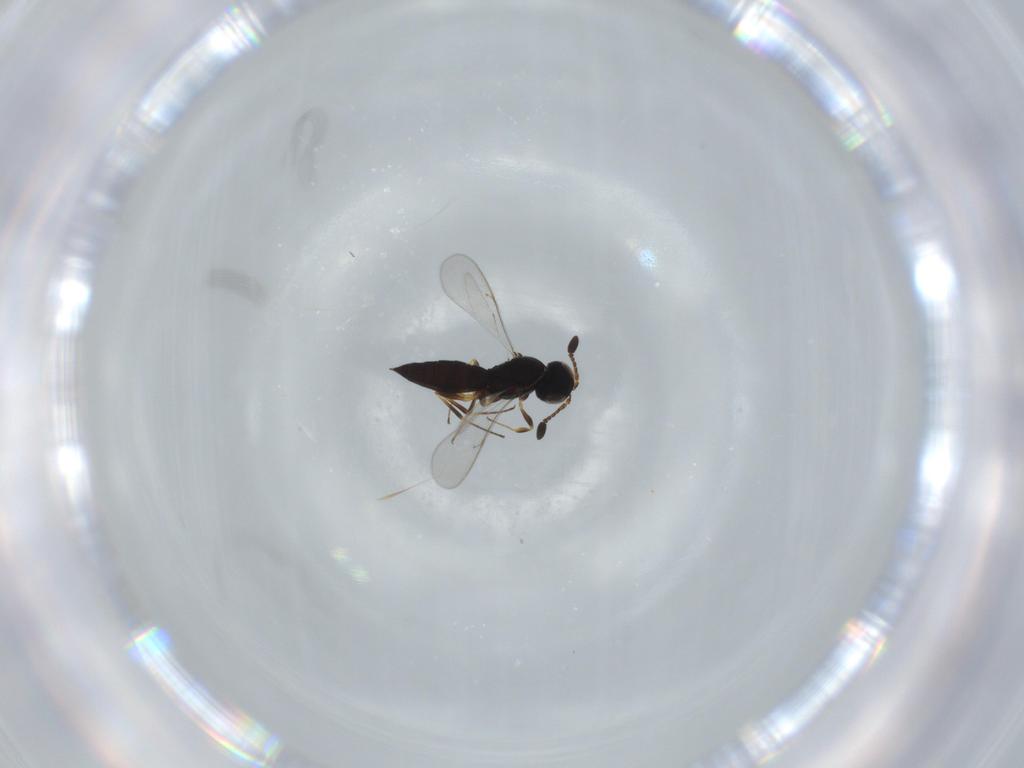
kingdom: Animalia
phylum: Arthropoda
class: Insecta
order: Hymenoptera
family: Scelionidae
